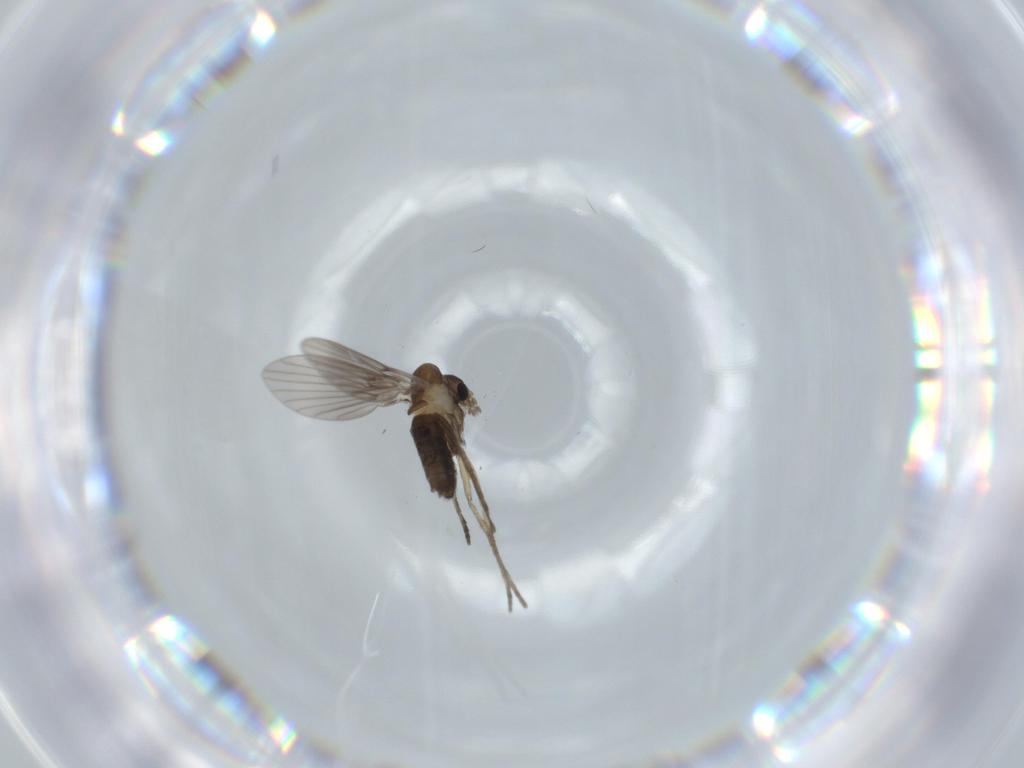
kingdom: Animalia
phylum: Arthropoda
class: Insecta
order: Diptera
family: Psychodidae
